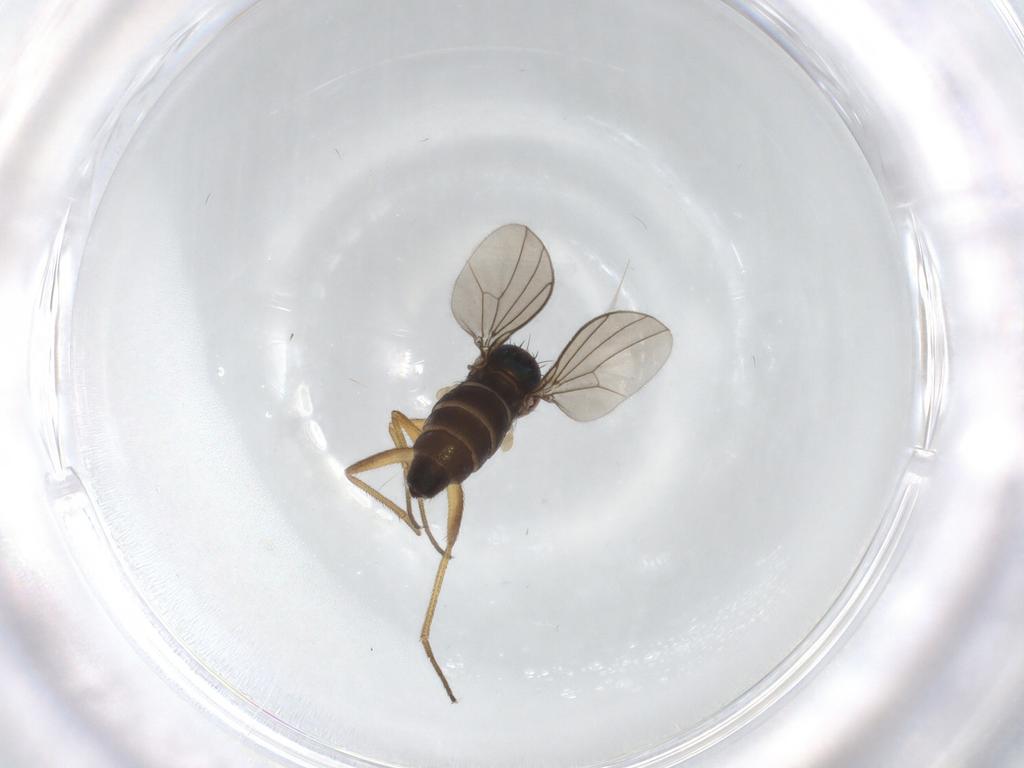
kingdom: Animalia
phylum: Arthropoda
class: Insecta
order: Diptera
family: Dolichopodidae
